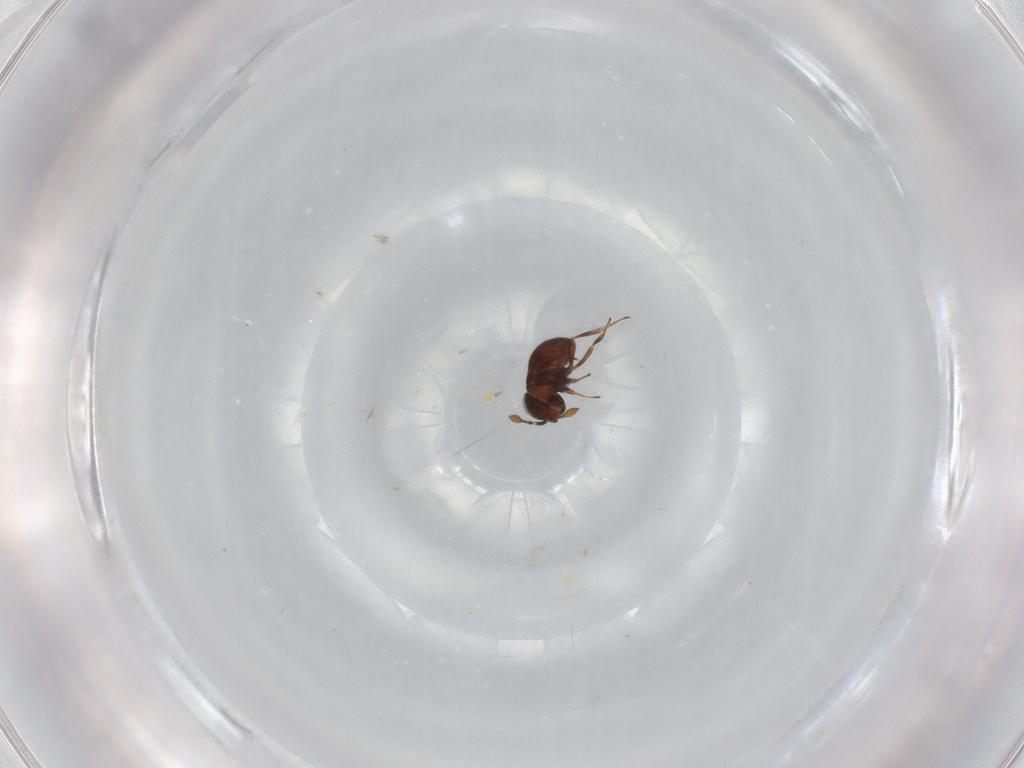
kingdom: Animalia
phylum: Arthropoda
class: Insecta
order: Hymenoptera
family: Scelionidae
